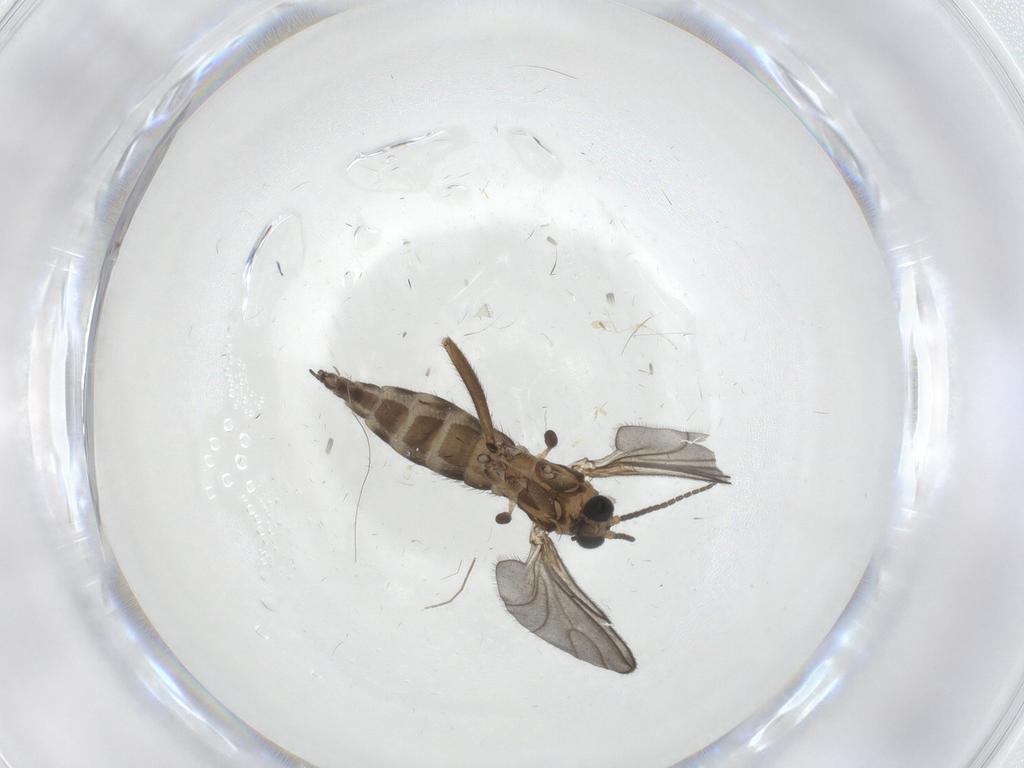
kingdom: Animalia
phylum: Arthropoda
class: Insecta
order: Diptera
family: Sciaridae
